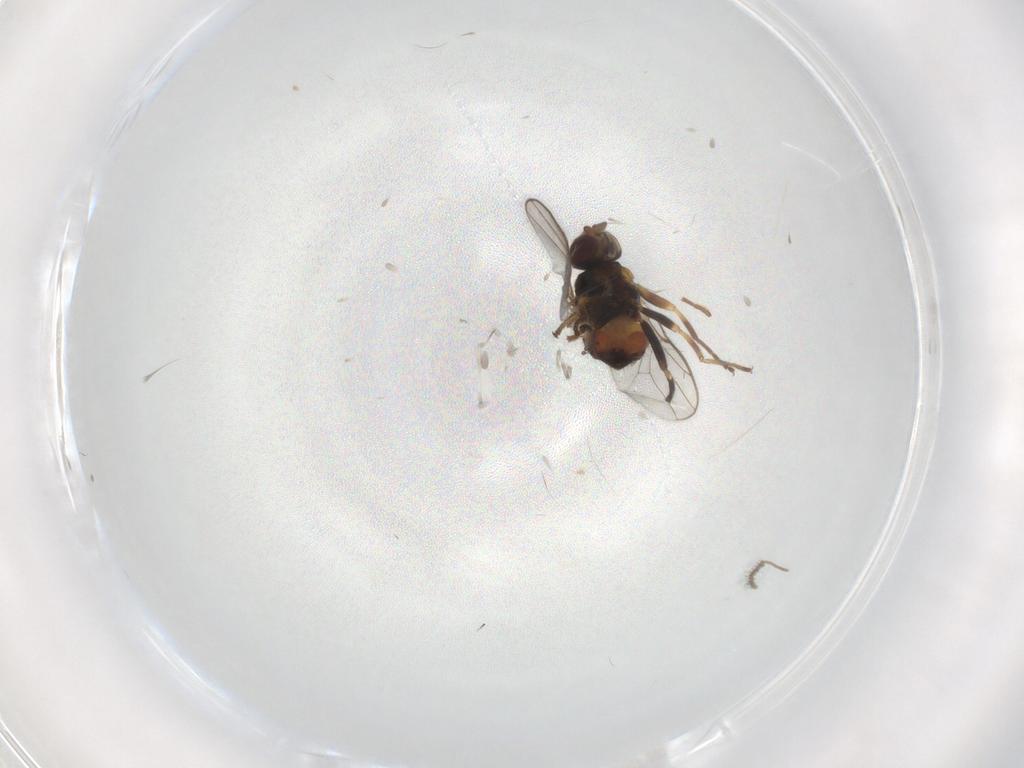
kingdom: Animalia
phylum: Arthropoda
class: Insecta
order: Diptera
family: Chloropidae
